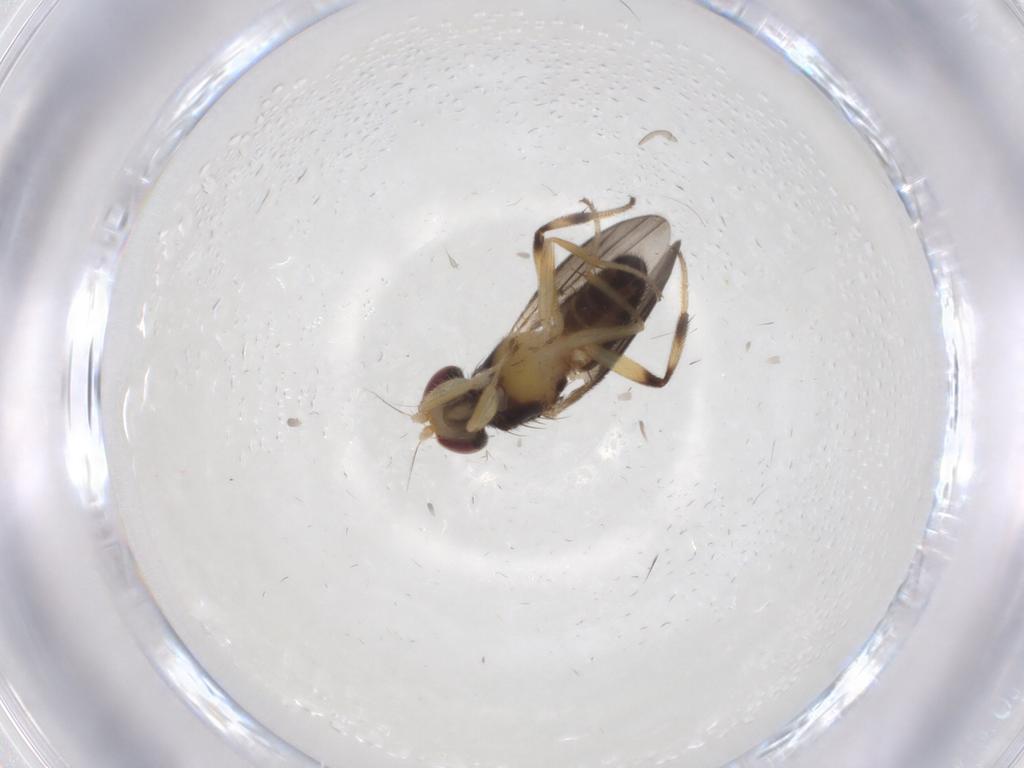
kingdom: Animalia
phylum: Arthropoda
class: Insecta
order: Diptera
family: Clusiidae
